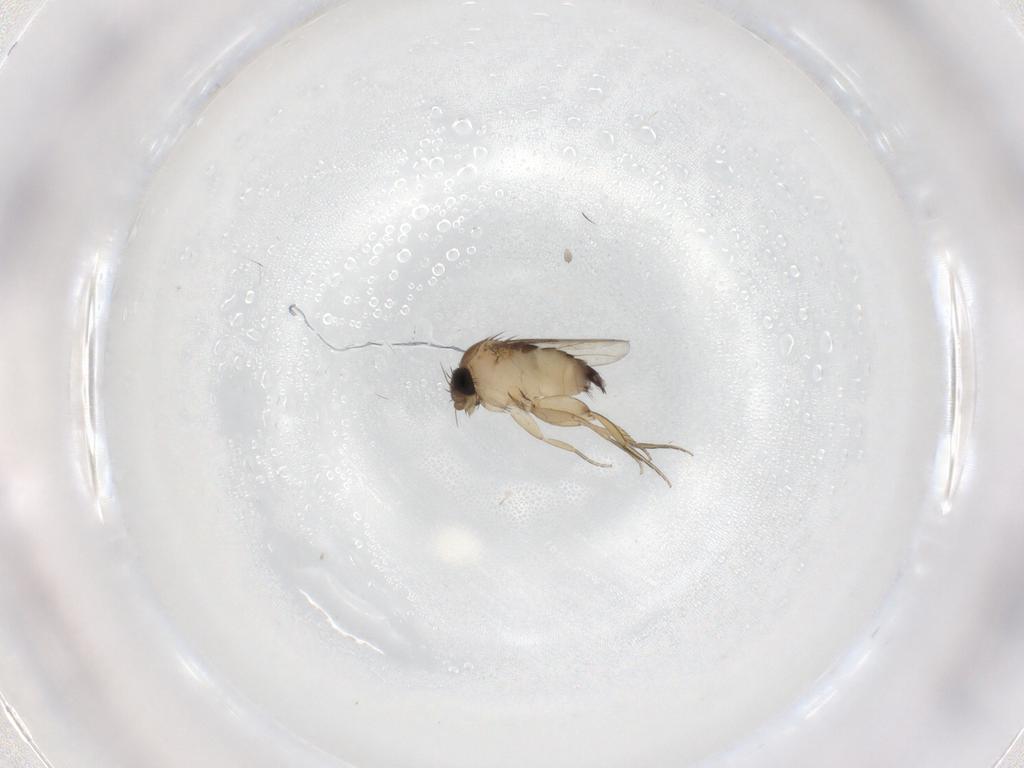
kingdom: Animalia
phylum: Arthropoda
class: Insecta
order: Diptera
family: Phoridae
